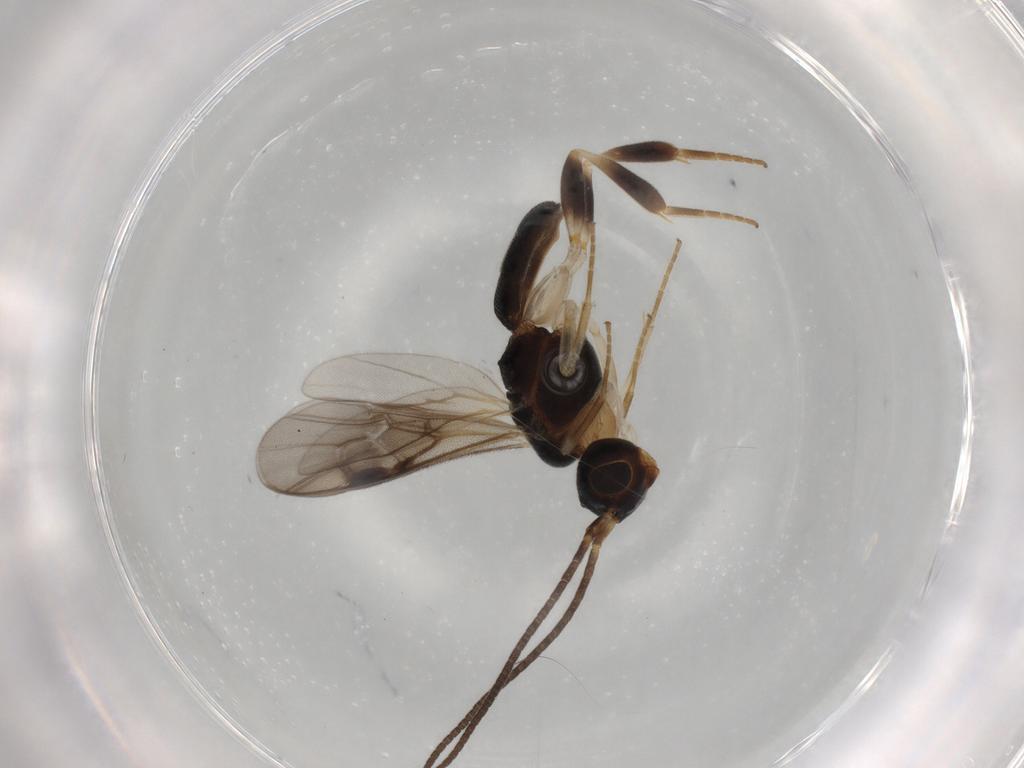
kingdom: Animalia
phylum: Arthropoda
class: Insecta
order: Hymenoptera
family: Braconidae
